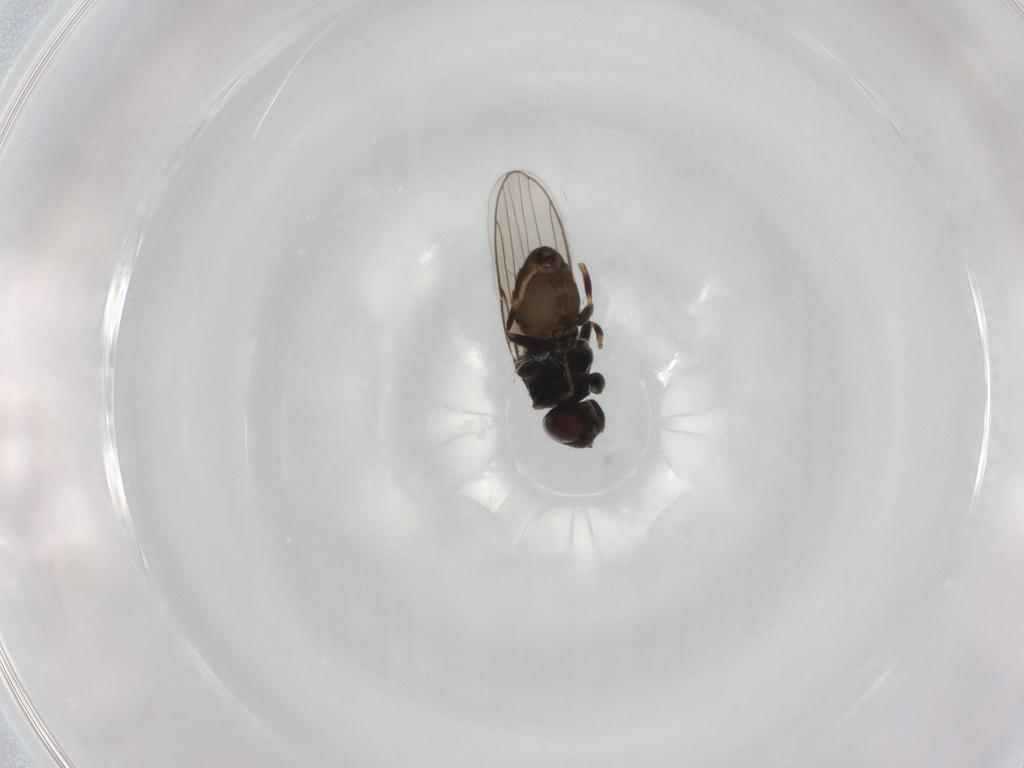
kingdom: Animalia
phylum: Arthropoda
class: Insecta
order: Diptera
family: Chloropidae
